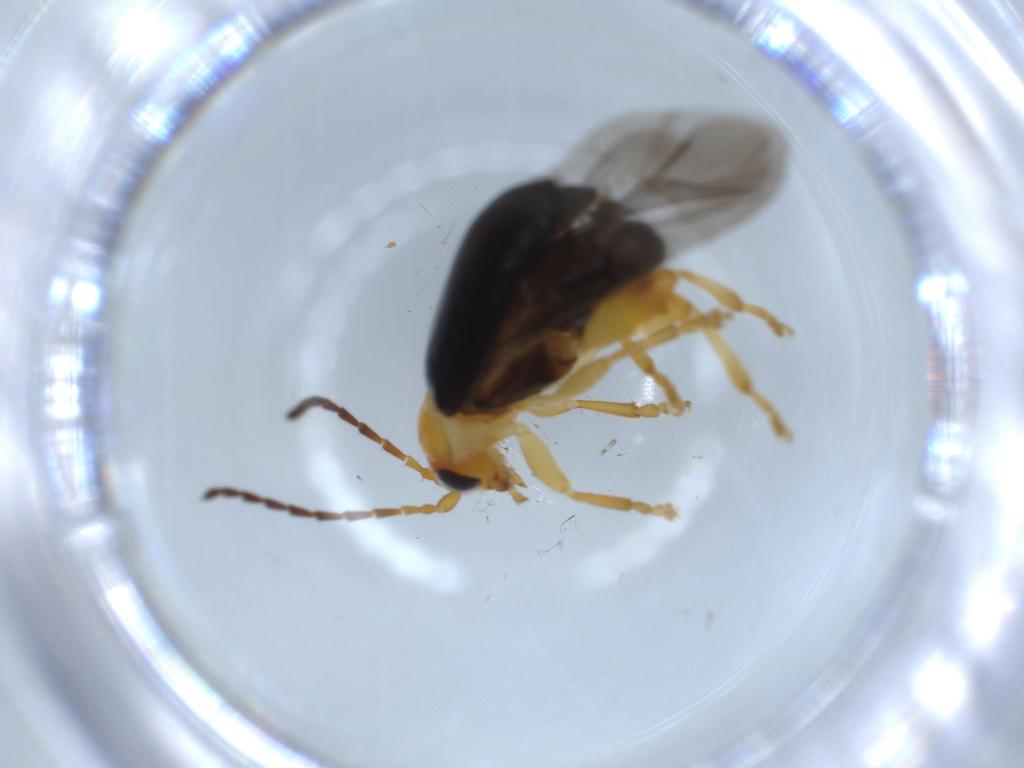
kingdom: Animalia
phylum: Arthropoda
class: Insecta
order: Coleoptera
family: Chrysomelidae
